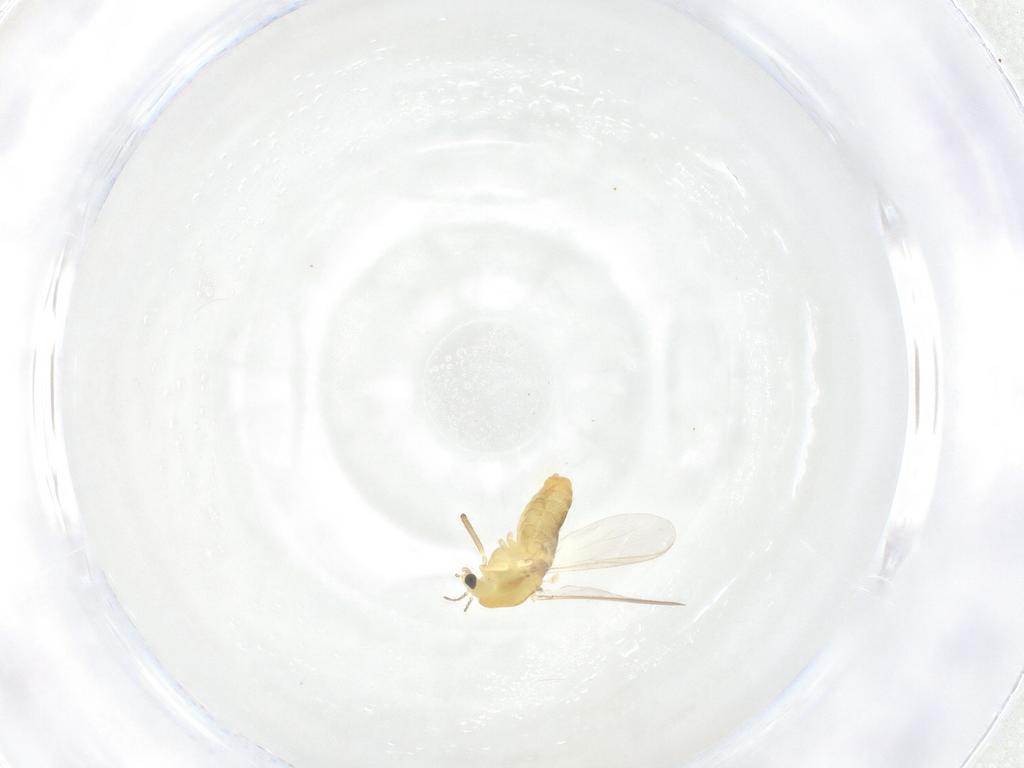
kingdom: Animalia
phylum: Arthropoda
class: Insecta
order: Diptera
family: Chironomidae
